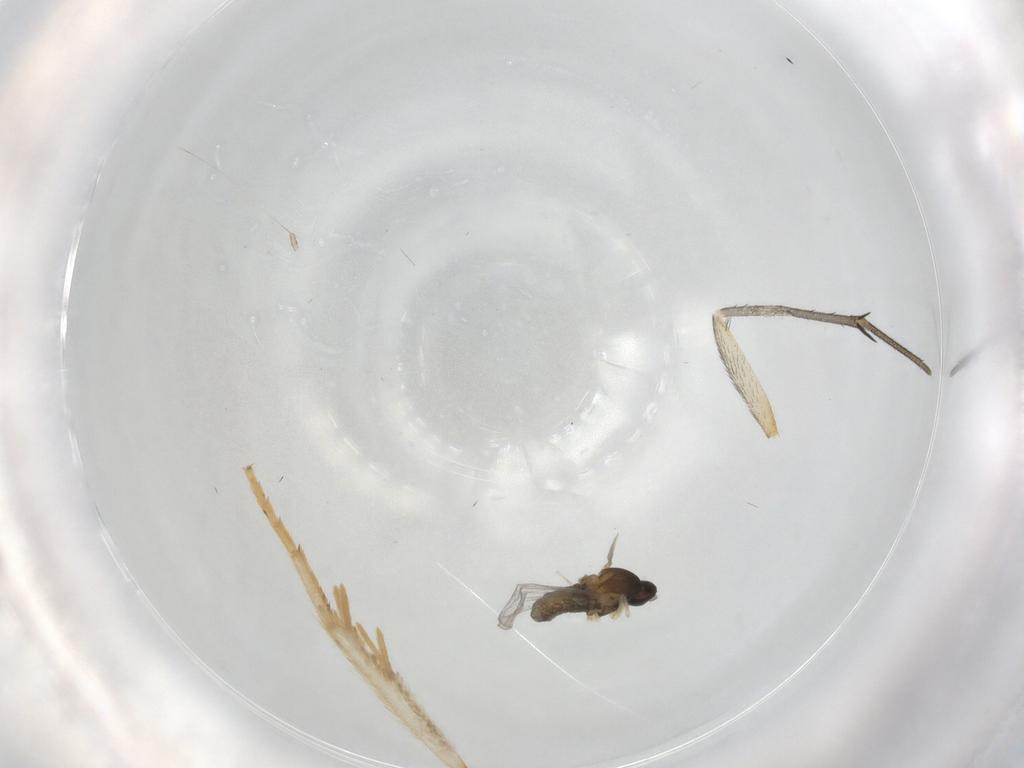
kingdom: Animalia
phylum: Arthropoda
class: Insecta
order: Diptera
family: Cecidomyiidae
